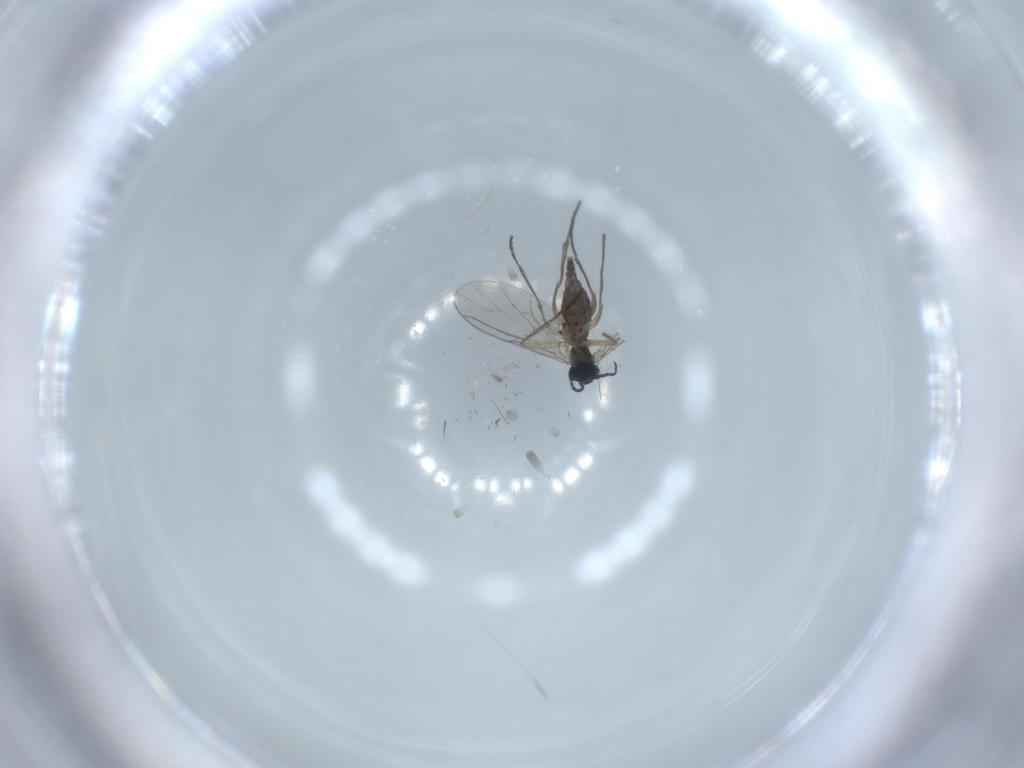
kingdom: Animalia
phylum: Arthropoda
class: Insecta
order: Diptera
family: Sciaridae
